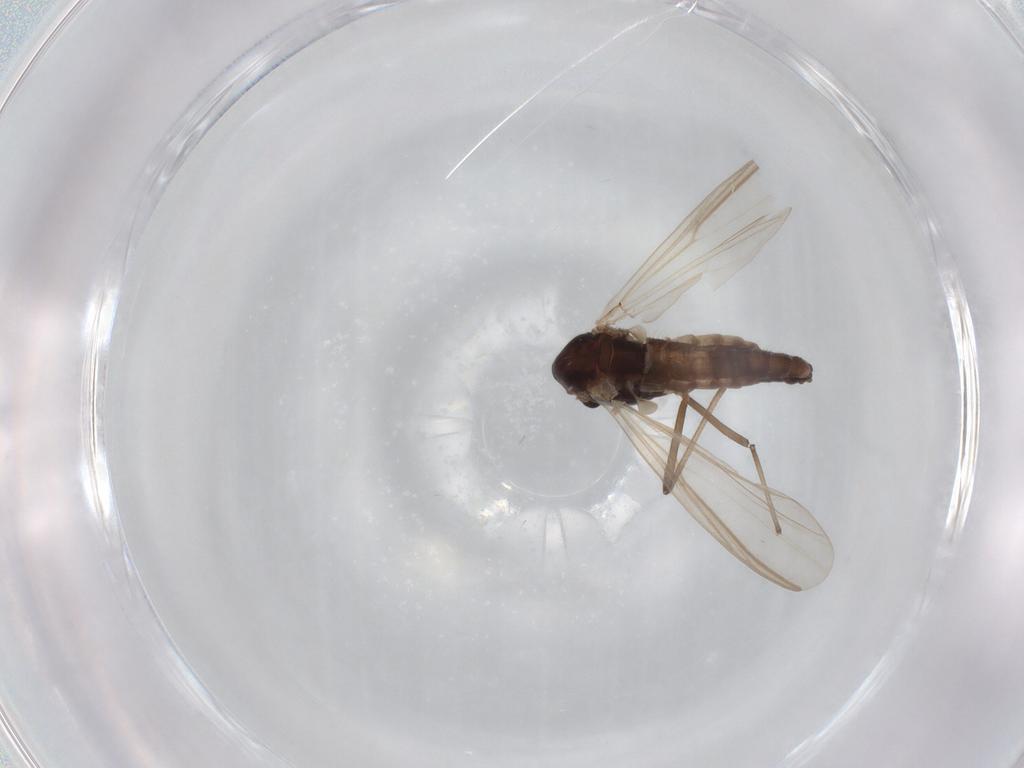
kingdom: Animalia
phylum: Arthropoda
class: Insecta
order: Diptera
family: Chironomidae
